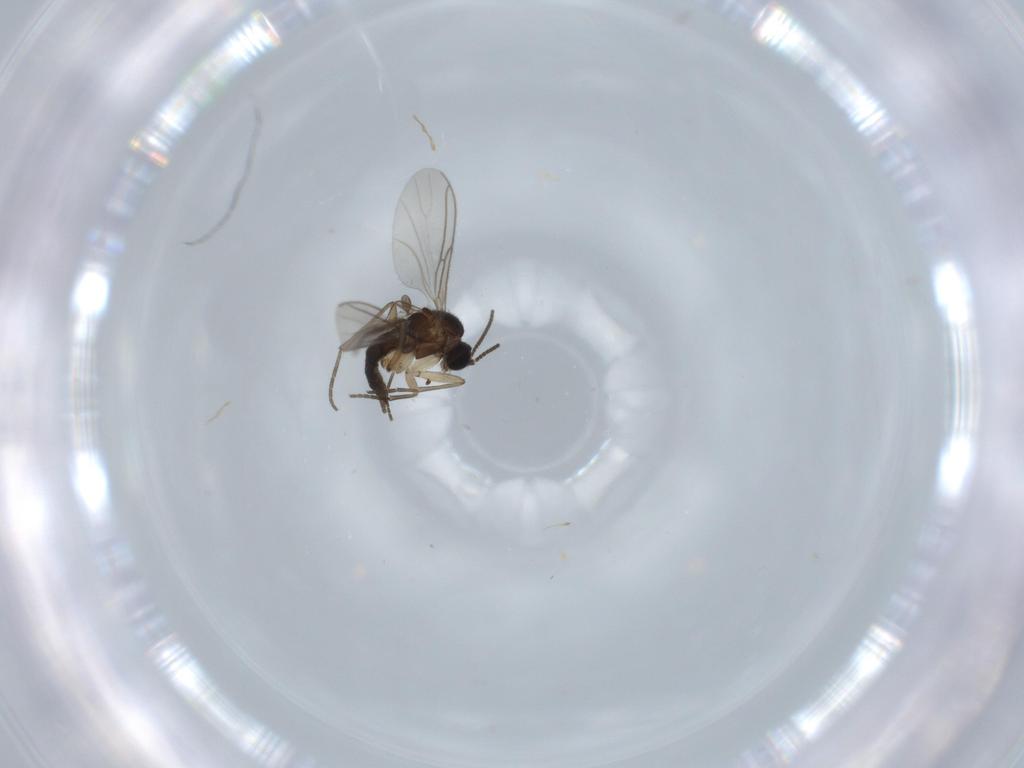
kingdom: Animalia
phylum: Arthropoda
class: Insecta
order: Diptera
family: Sciaridae
